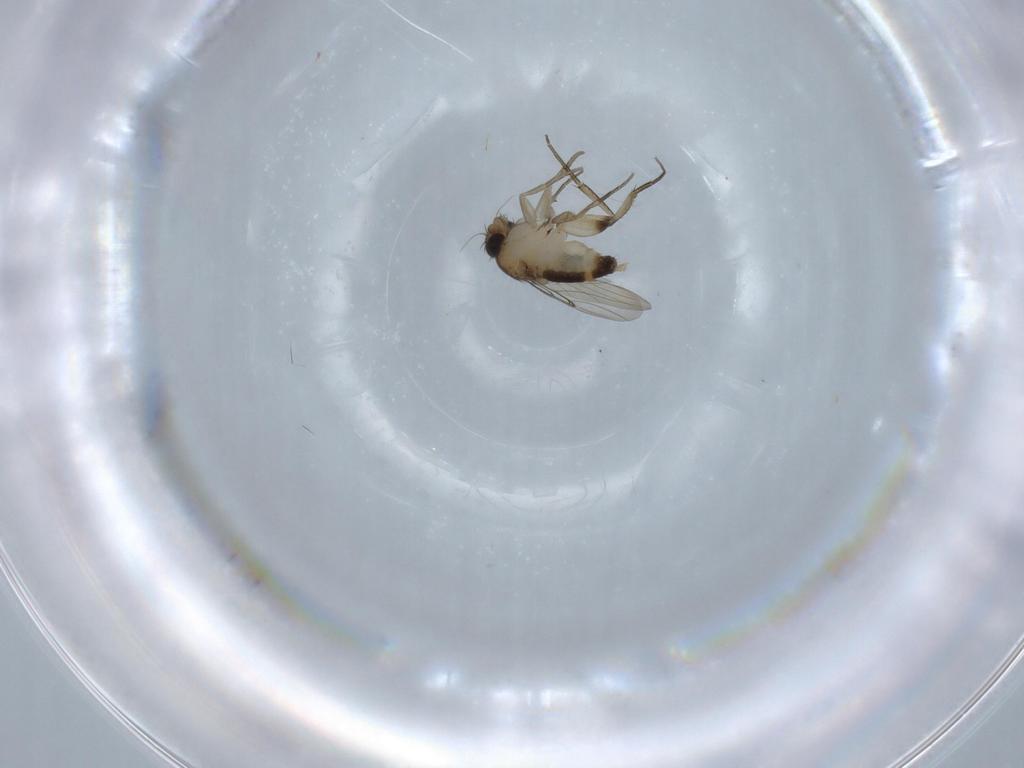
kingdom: Animalia
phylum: Arthropoda
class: Insecta
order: Diptera
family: Phoridae
